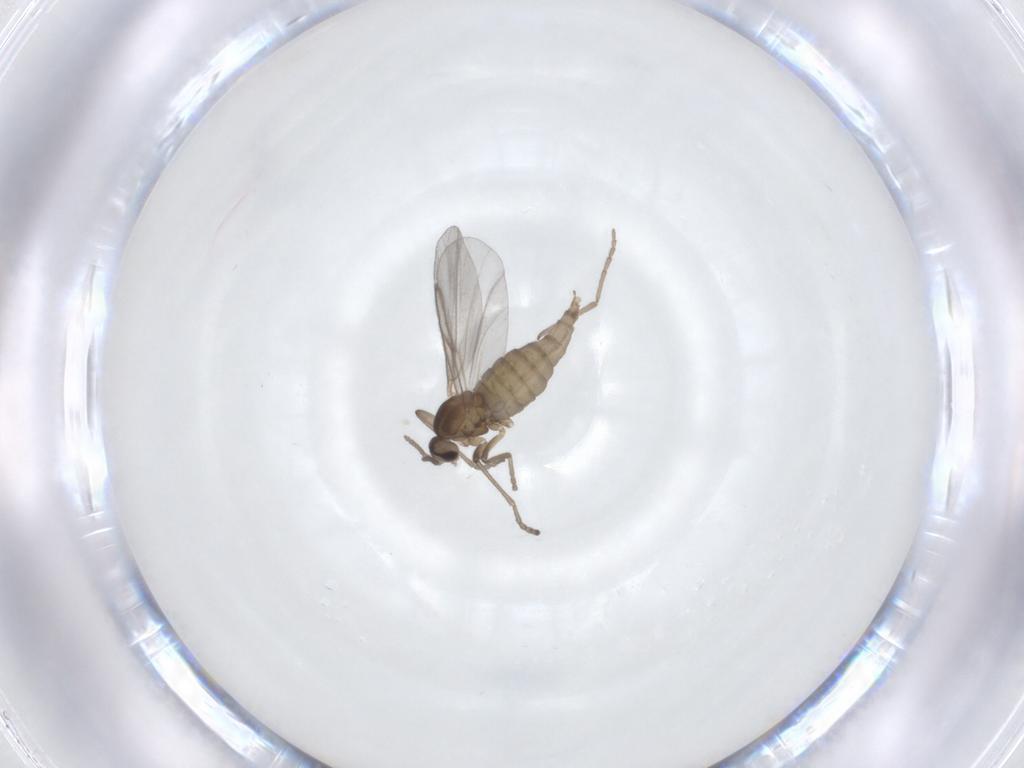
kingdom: Animalia
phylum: Arthropoda
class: Insecta
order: Diptera
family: Cecidomyiidae
